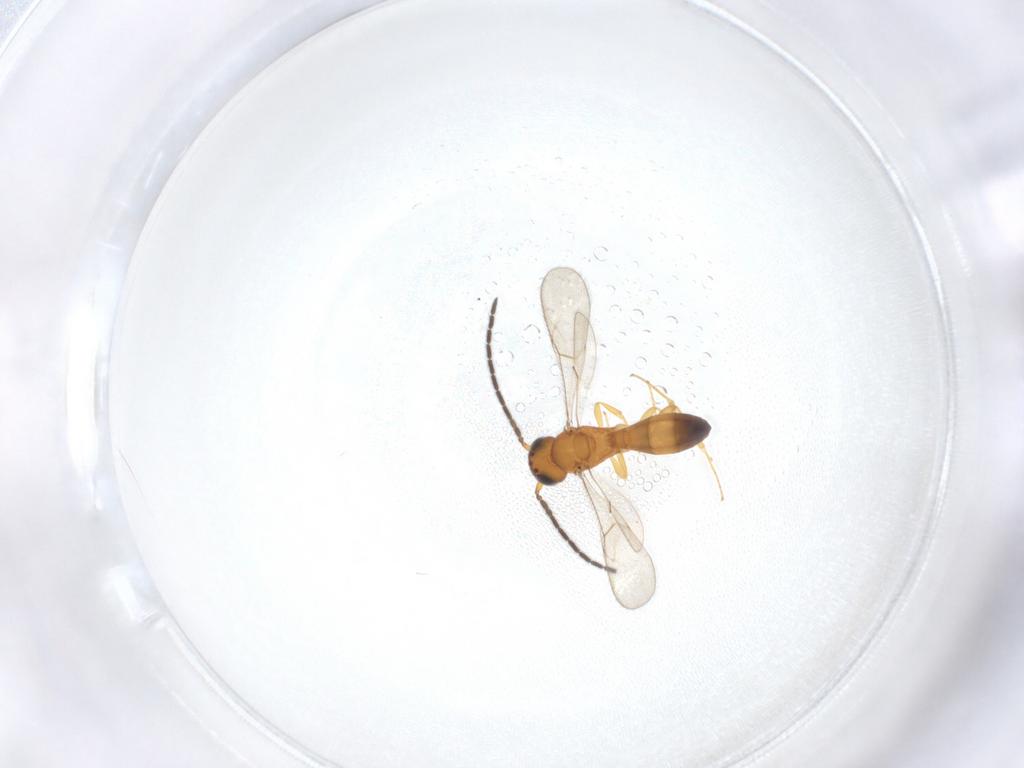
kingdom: Animalia
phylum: Arthropoda
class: Insecta
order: Hymenoptera
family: Scelionidae
